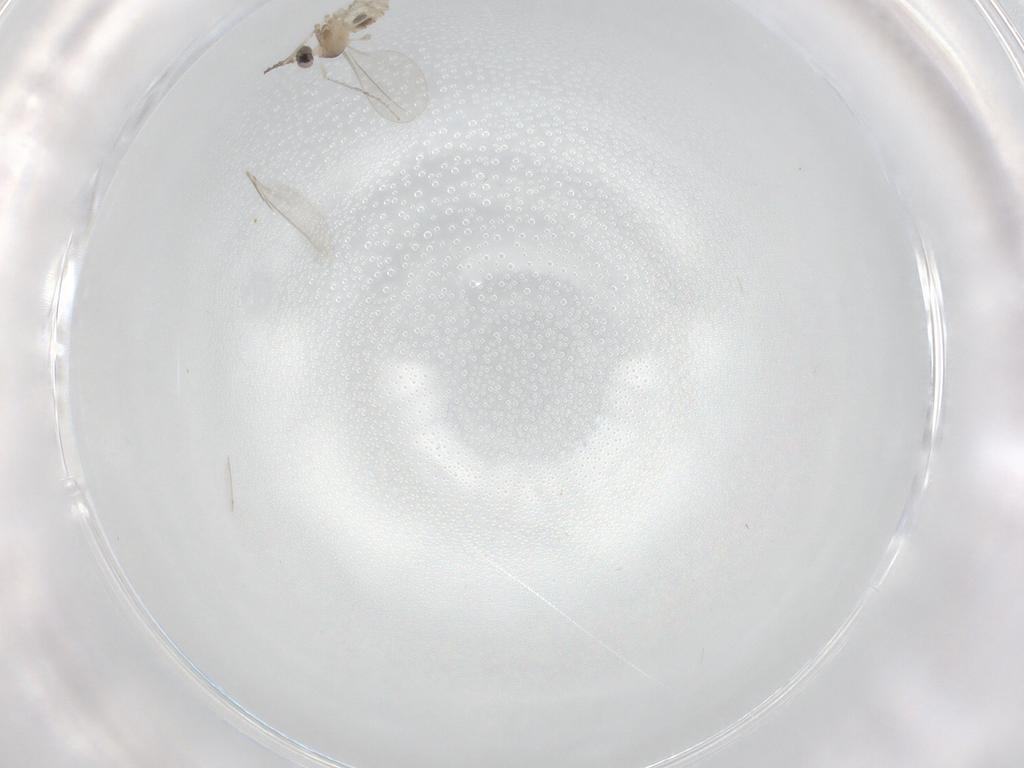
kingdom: Animalia
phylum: Arthropoda
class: Insecta
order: Diptera
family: Cecidomyiidae
